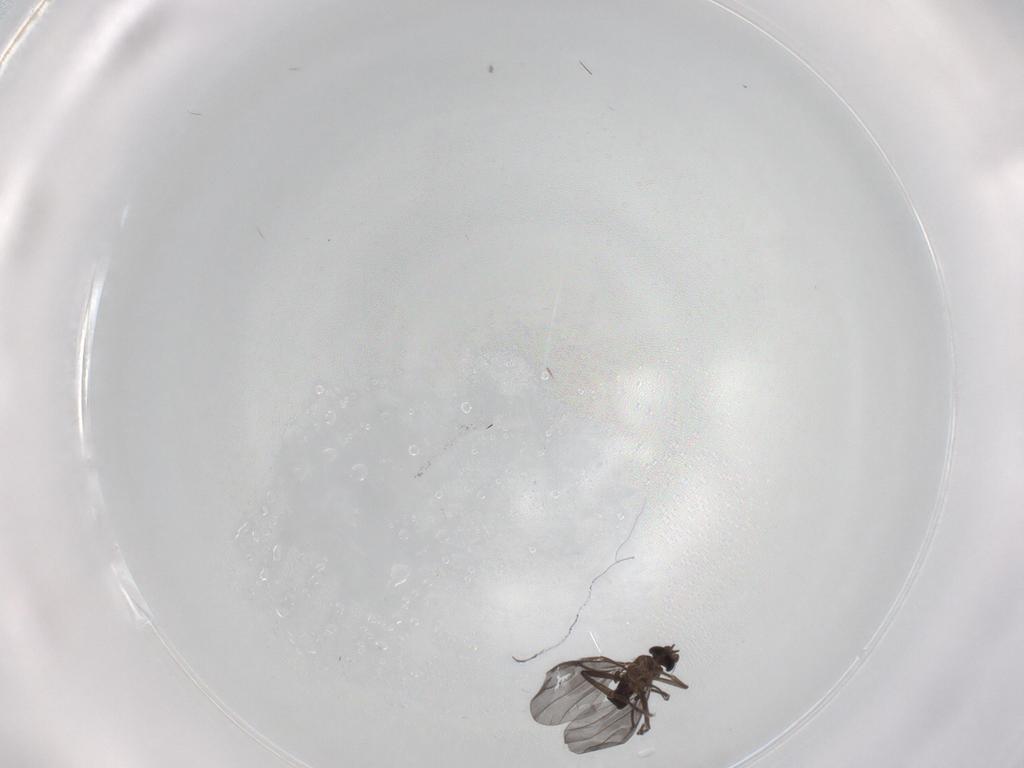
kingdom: Animalia
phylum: Arthropoda
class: Insecta
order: Diptera
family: Phoridae
